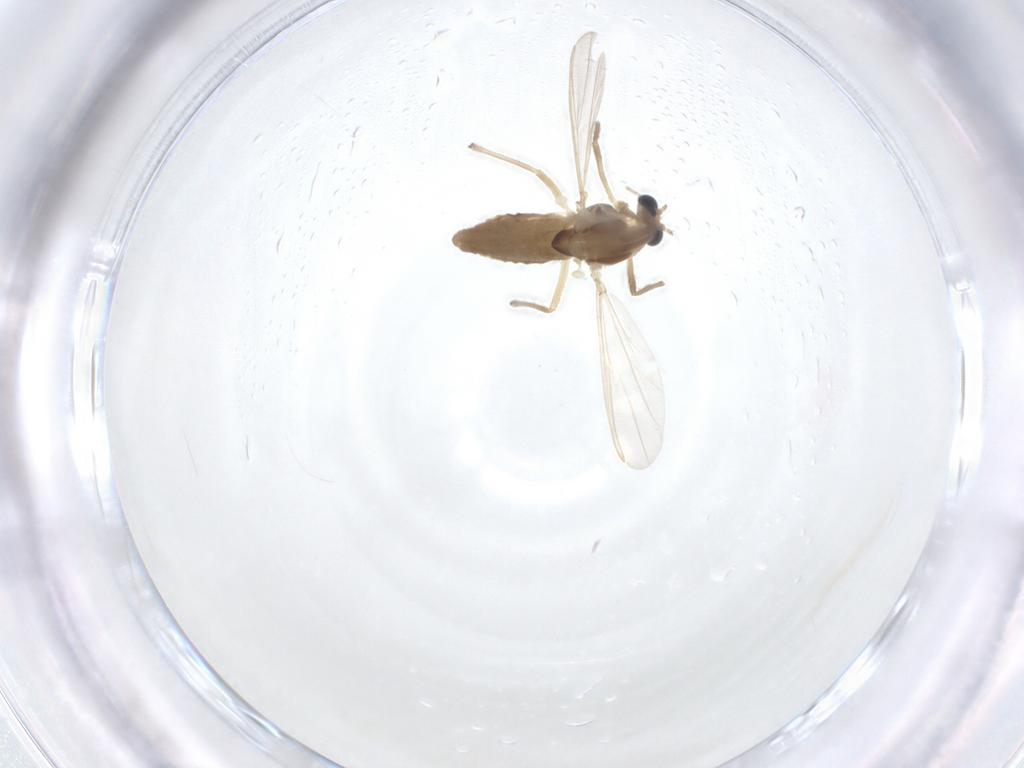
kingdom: Animalia
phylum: Arthropoda
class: Insecta
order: Diptera
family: Chironomidae
